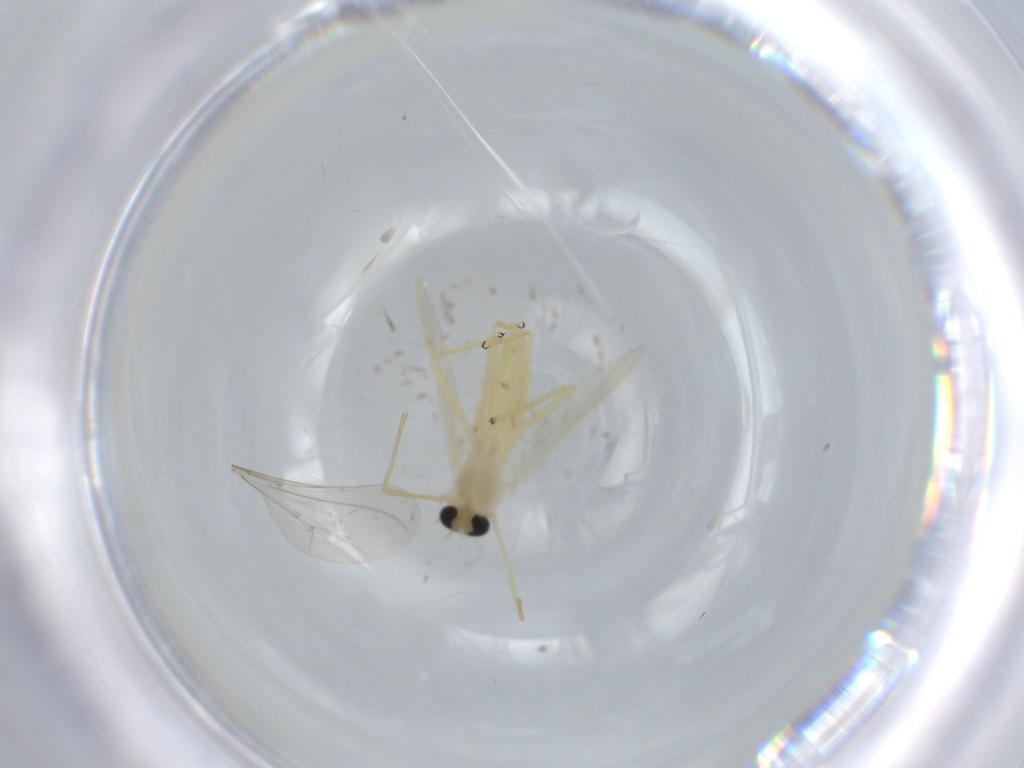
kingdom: Animalia
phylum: Arthropoda
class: Insecta
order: Diptera
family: Chironomidae
